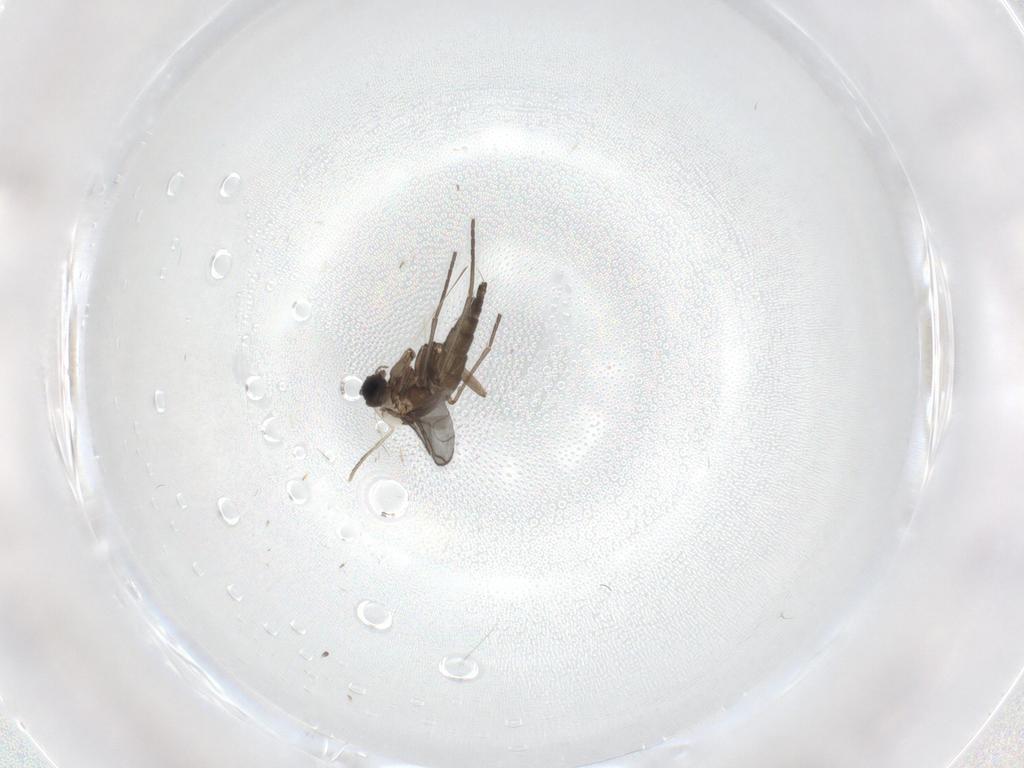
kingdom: Animalia
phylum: Arthropoda
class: Insecta
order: Diptera
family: Sciaridae
